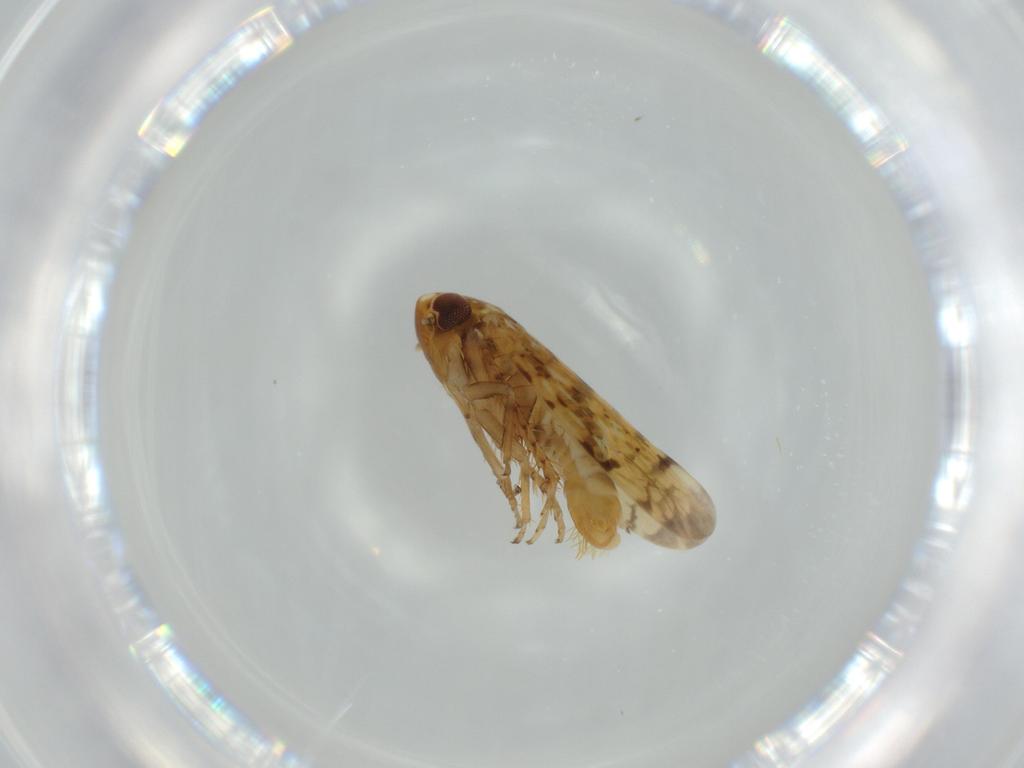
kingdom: Animalia
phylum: Arthropoda
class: Insecta
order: Hemiptera
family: Cicadellidae
